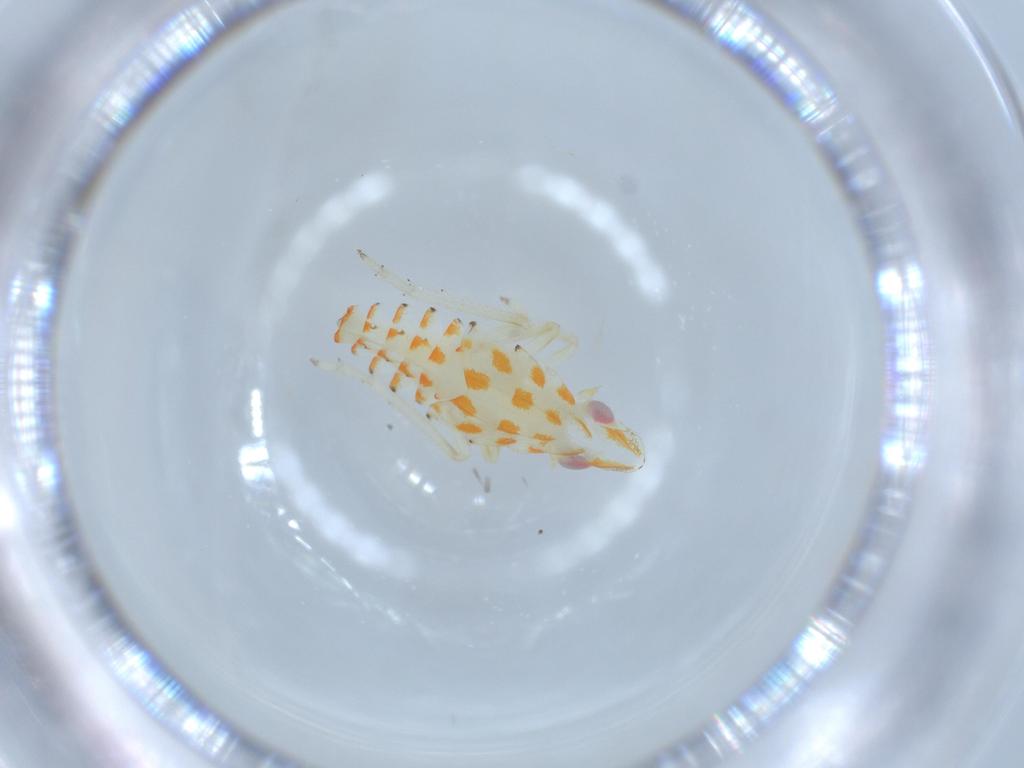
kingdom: Animalia
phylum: Arthropoda
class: Insecta
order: Hemiptera
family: Tropiduchidae
